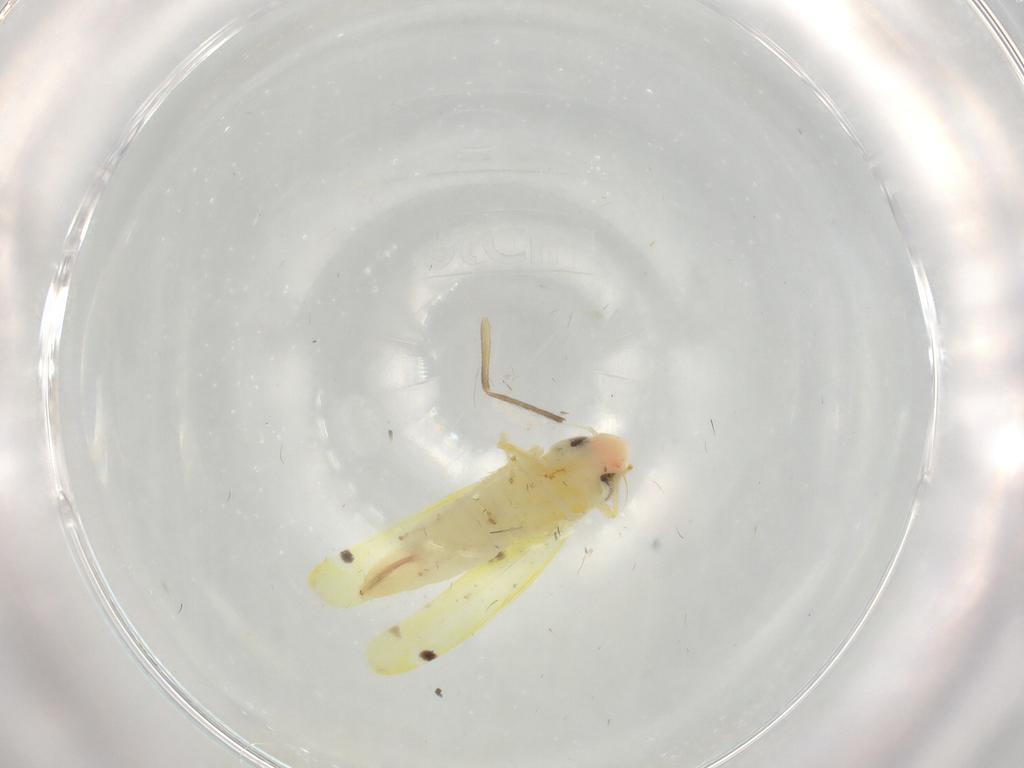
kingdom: Animalia
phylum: Arthropoda
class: Insecta
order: Hemiptera
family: Cicadellidae
